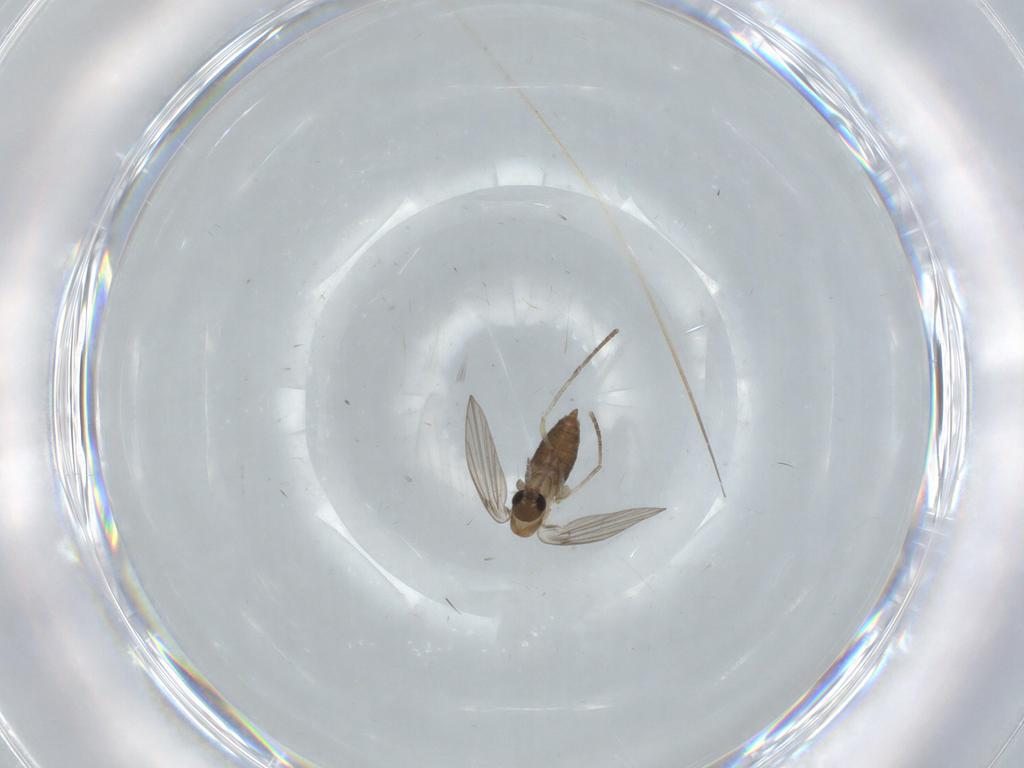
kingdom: Animalia
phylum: Arthropoda
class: Insecta
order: Diptera
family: Psychodidae
